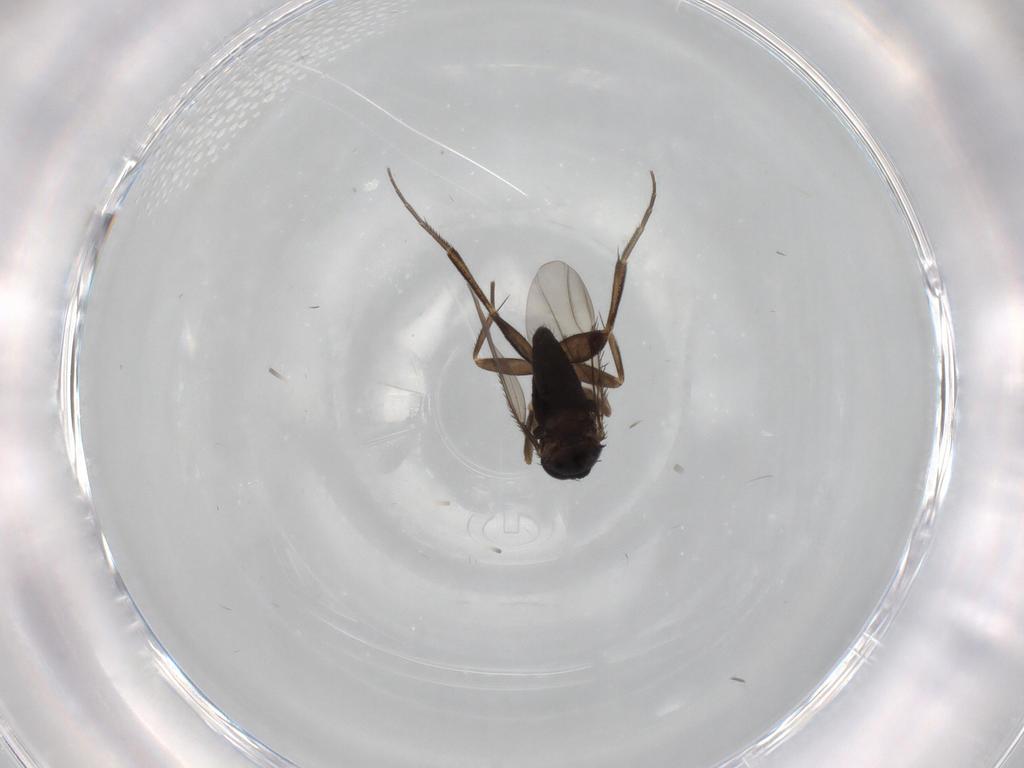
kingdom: Animalia
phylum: Arthropoda
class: Insecta
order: Diptera
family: Phoridae
